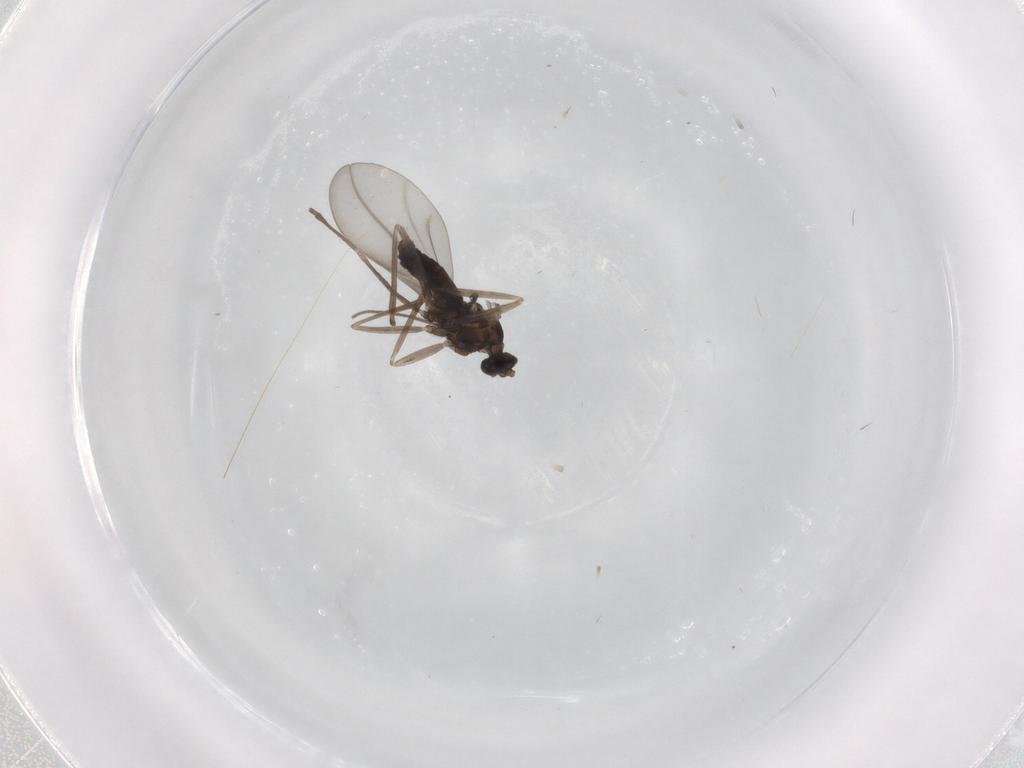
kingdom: Animalia
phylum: Arthropoda
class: Insecta
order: Diptera
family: Cecidomyiidae
